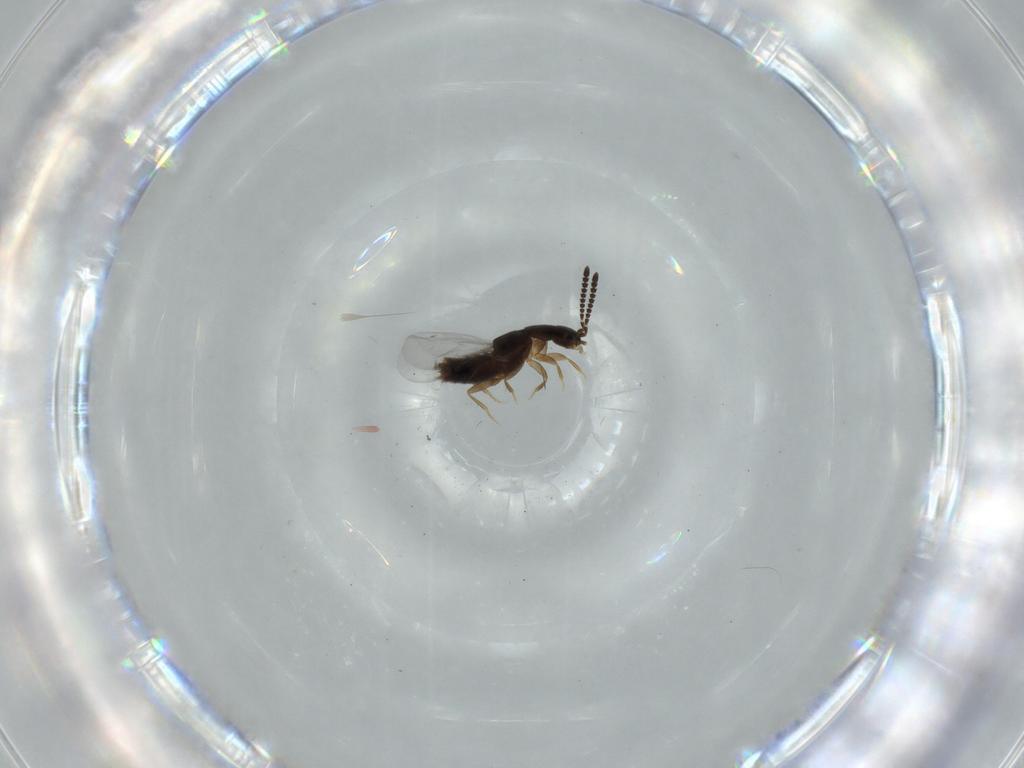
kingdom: Animalia
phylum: Arthropoda
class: Insecta
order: Coleoptera
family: Staphylinidae
